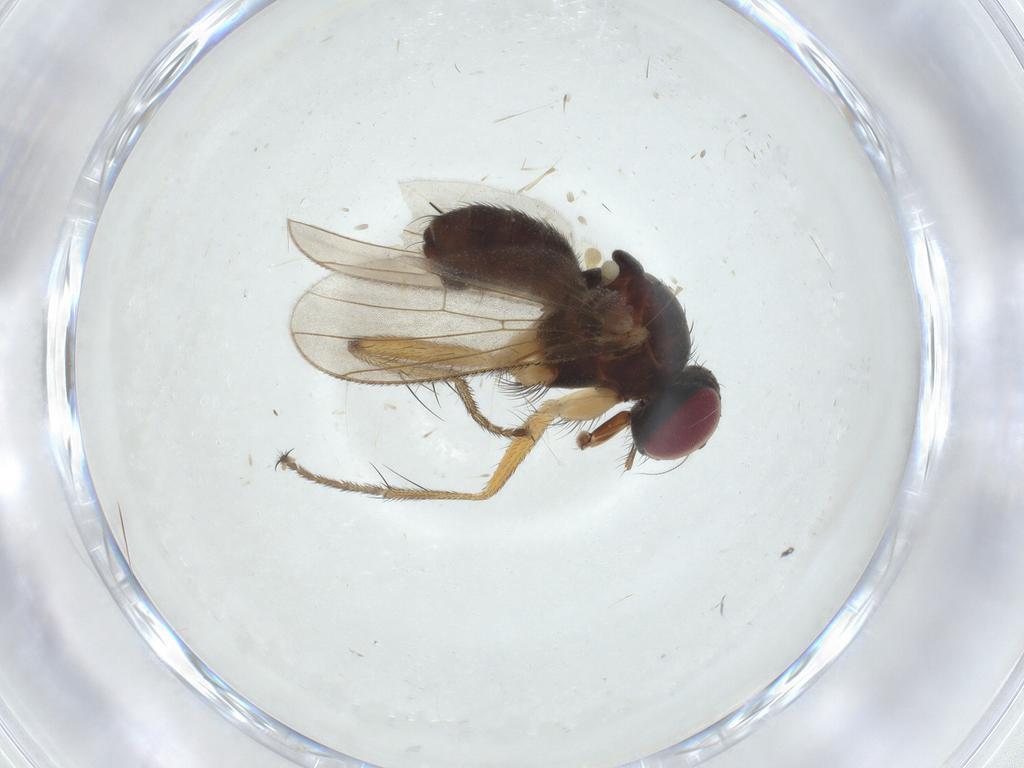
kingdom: Animalia
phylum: Arthropoda
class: Insecta
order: Diptera
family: Muscidae
